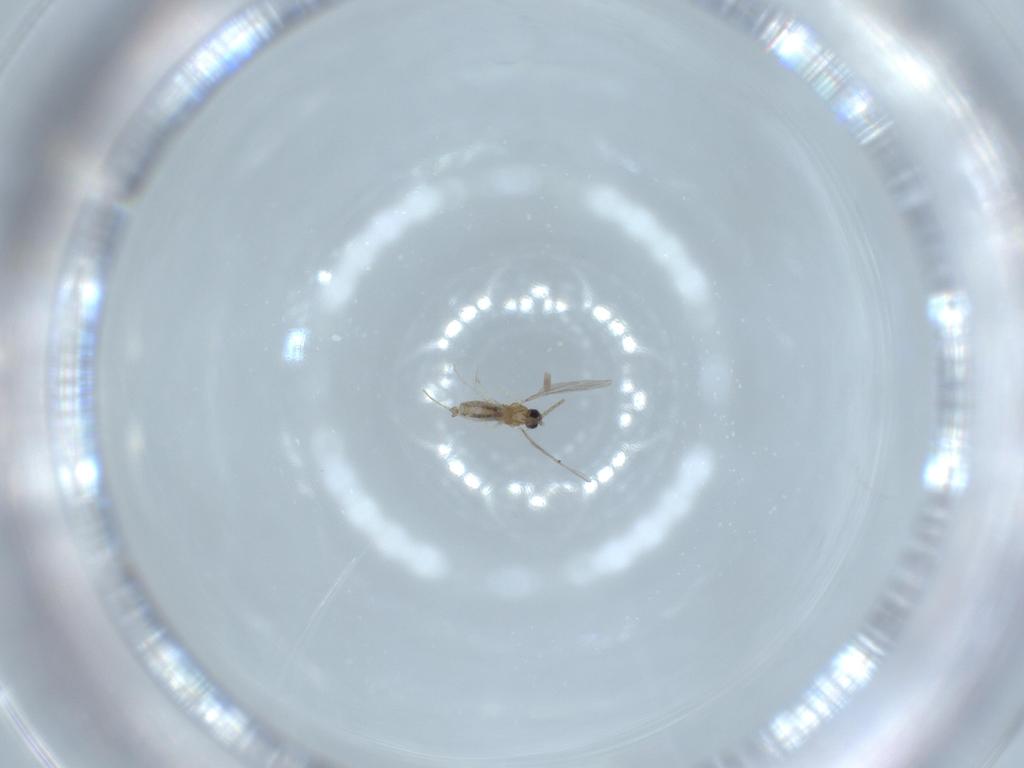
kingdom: Animalia
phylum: Arthropoda
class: Insecta
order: Diptera
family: Cecidomyiidae
